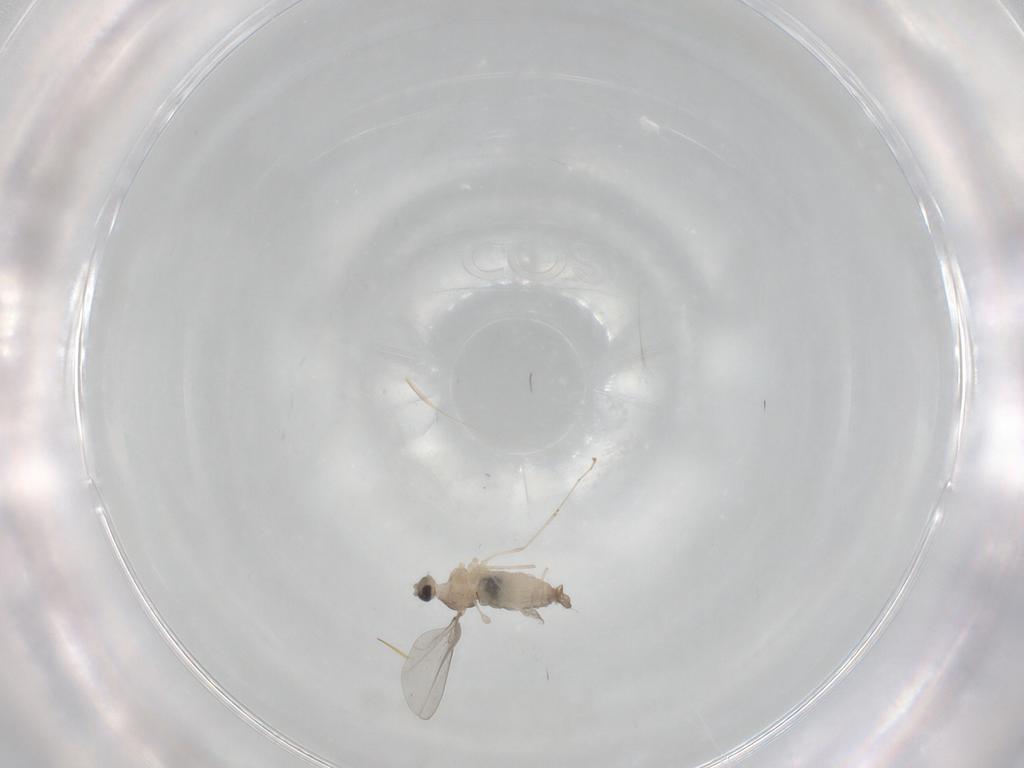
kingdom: Animalia
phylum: Arthropoda
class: Insecta
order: Diptera
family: Cecidomyiidae
